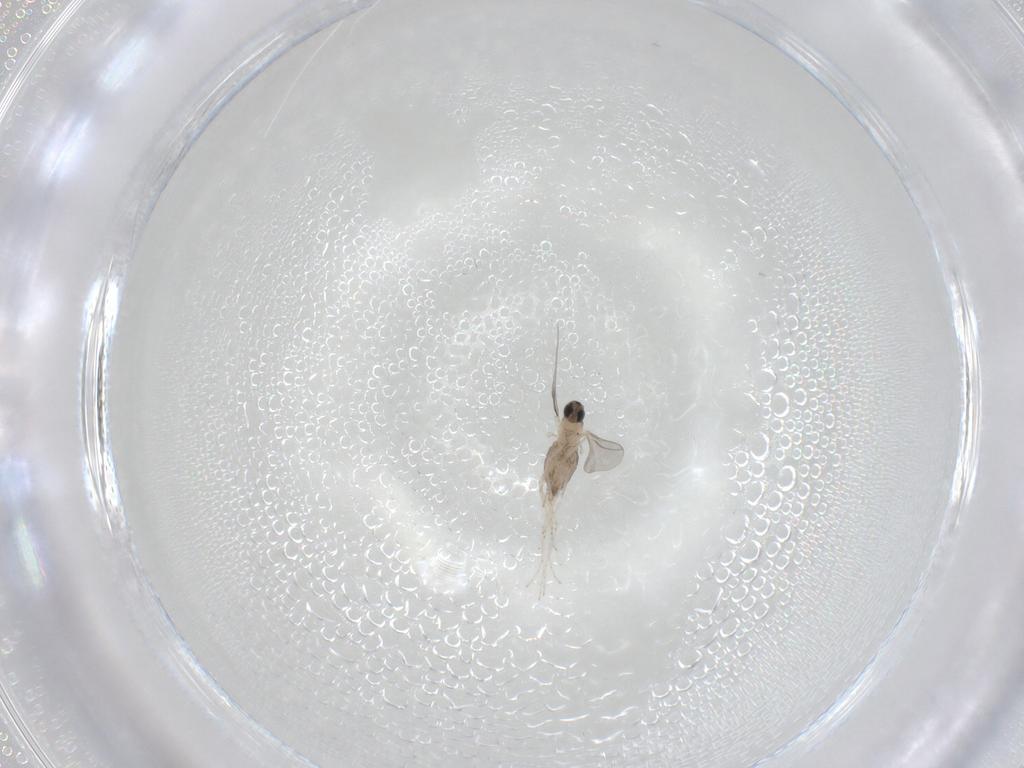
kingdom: Animalia
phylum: Arthropoda
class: Insecta
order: Diptera
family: Cecidomyiidae
